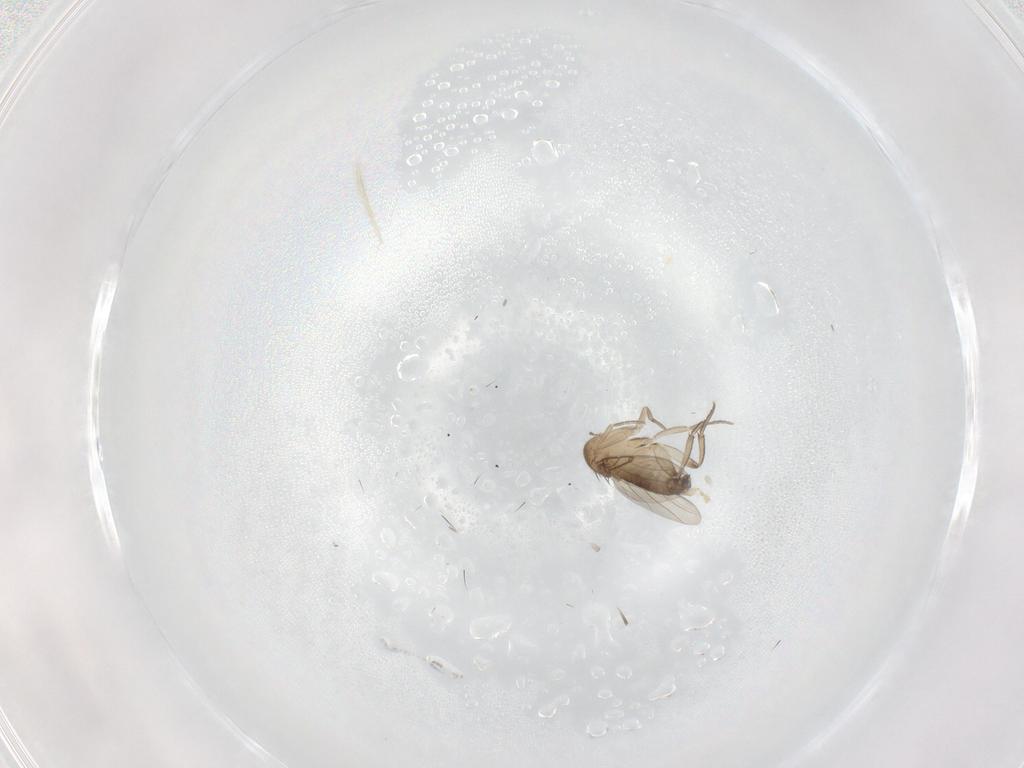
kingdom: Animalia
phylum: Arthropoda
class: Insecta
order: Diptera
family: Phoridae
